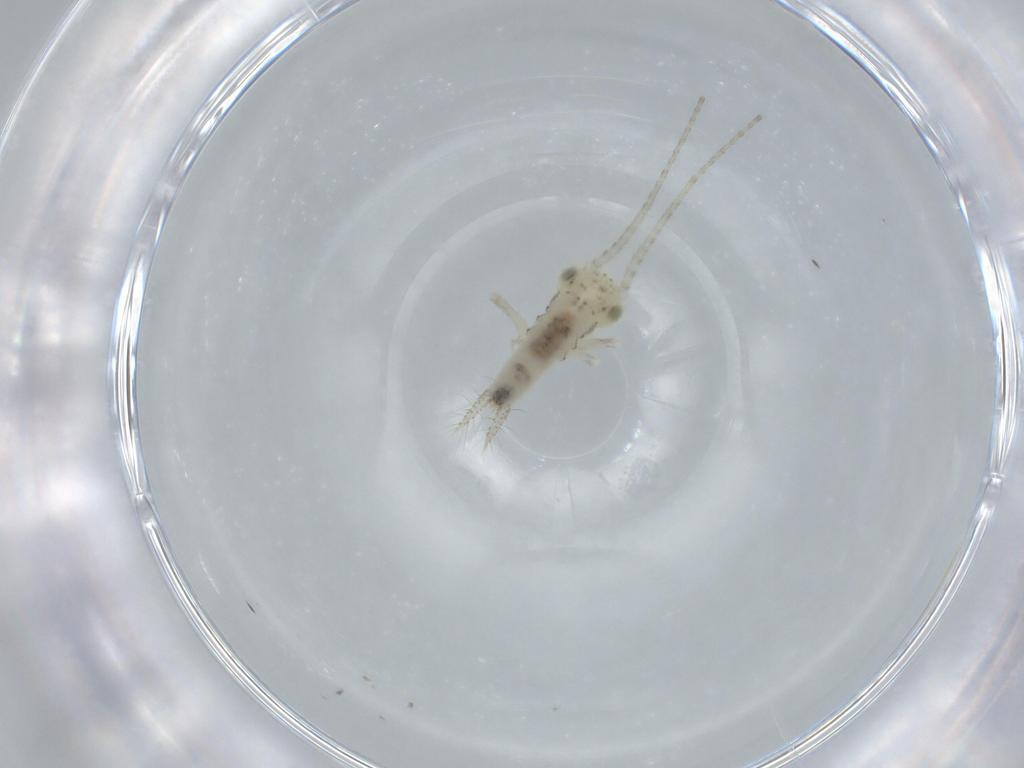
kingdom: Animalia
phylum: Arthropoda
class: Insecta
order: Orthoptera
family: Trigonidiidae
